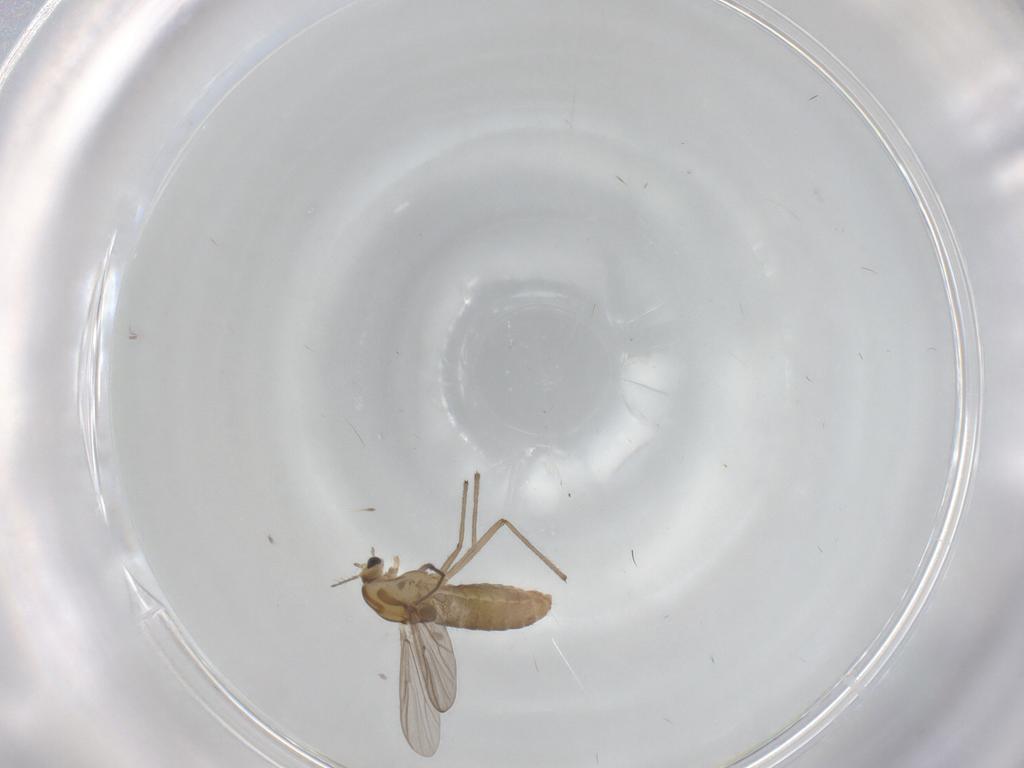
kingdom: Animalia
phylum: Arthropoda
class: Insecta
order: Diptera
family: Chironomidae
